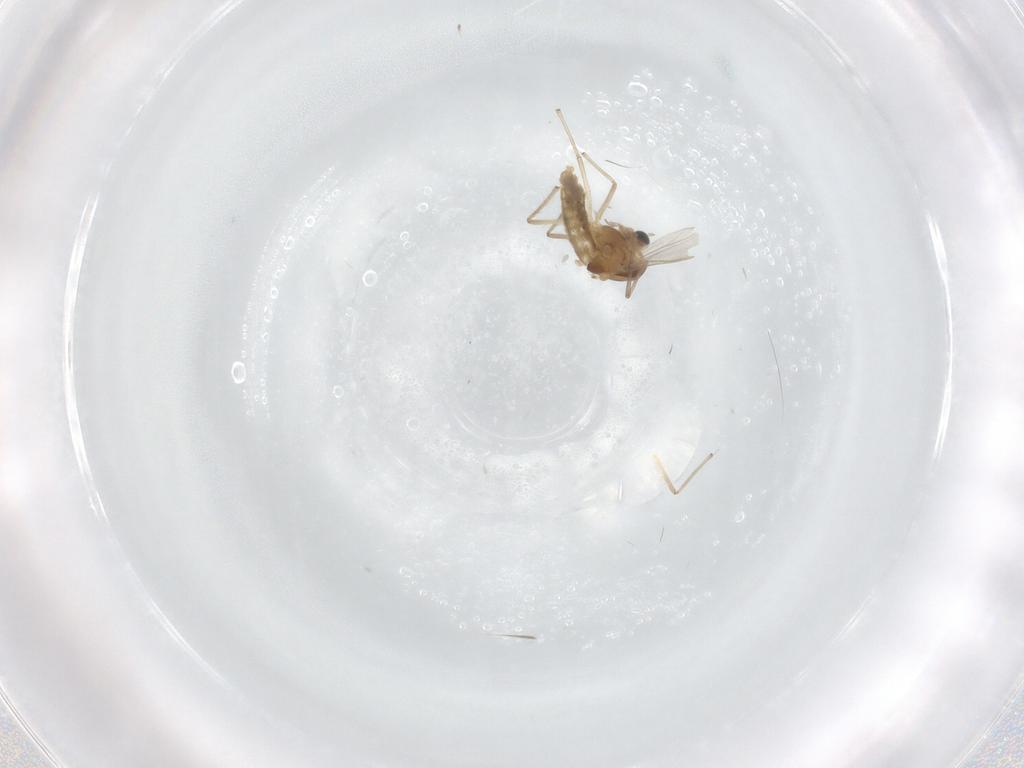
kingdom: Animalia
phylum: Arthropoda
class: Insecta
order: Diptera
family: Chironomidae
